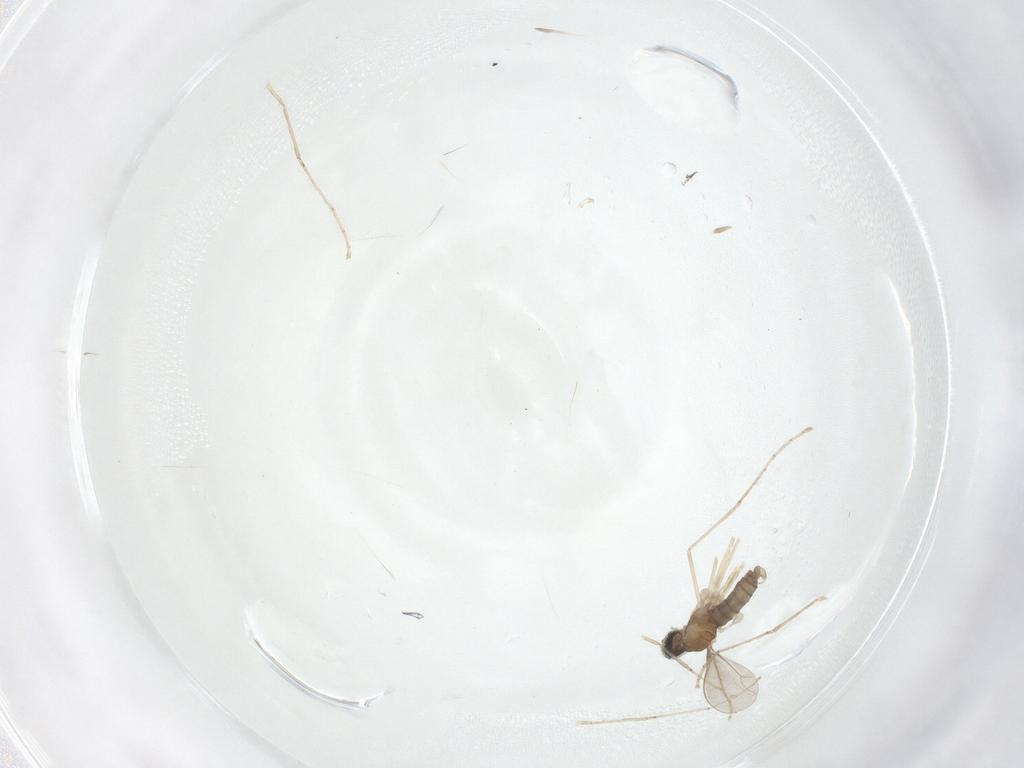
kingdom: Animalia
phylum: Arthropoda
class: Insecta
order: Diptera
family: Cecidomyiidae
